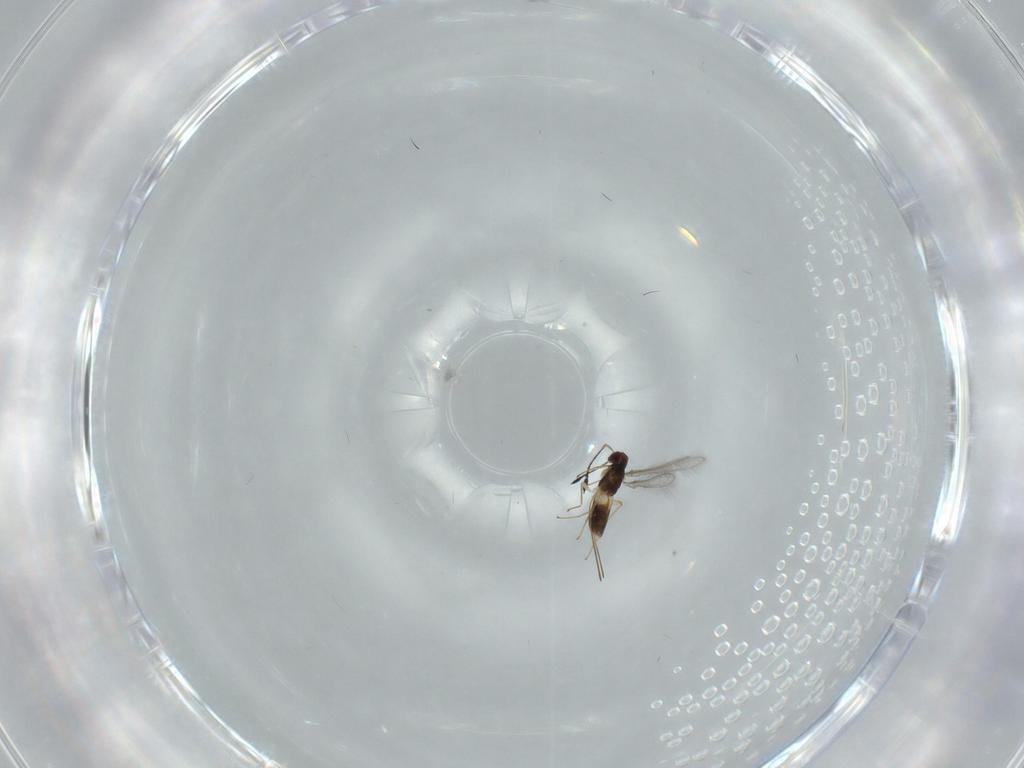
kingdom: Animalia
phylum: Arthropoda
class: Insecta
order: Hymenoptera
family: Mymaridae
